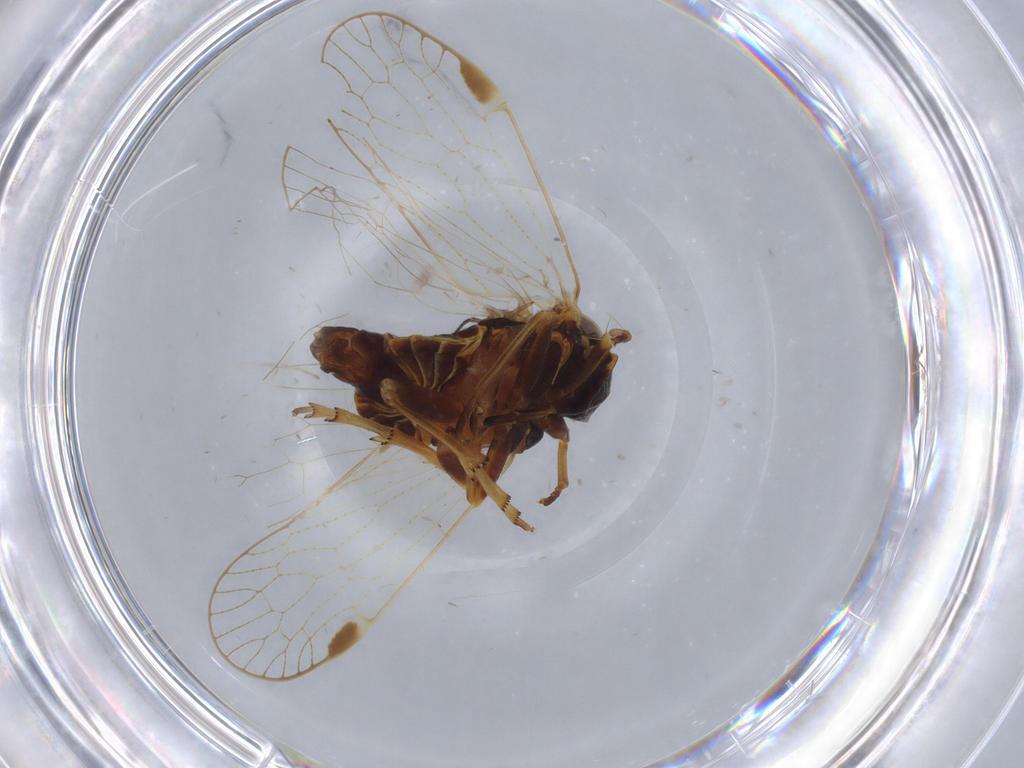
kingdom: Animalia
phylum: Arthropoda
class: Insecta
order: Hemiptera
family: Cixiidae
